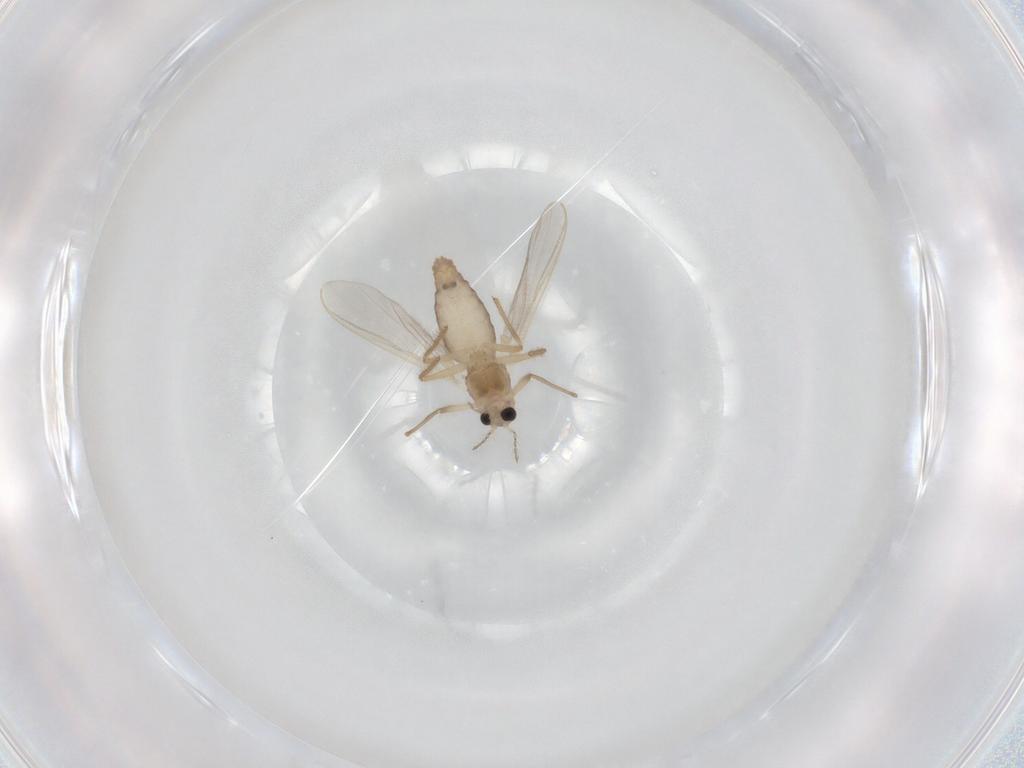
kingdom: Animalia
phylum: Arthropoda
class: Insecta
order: Diptera
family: Chironomidae
